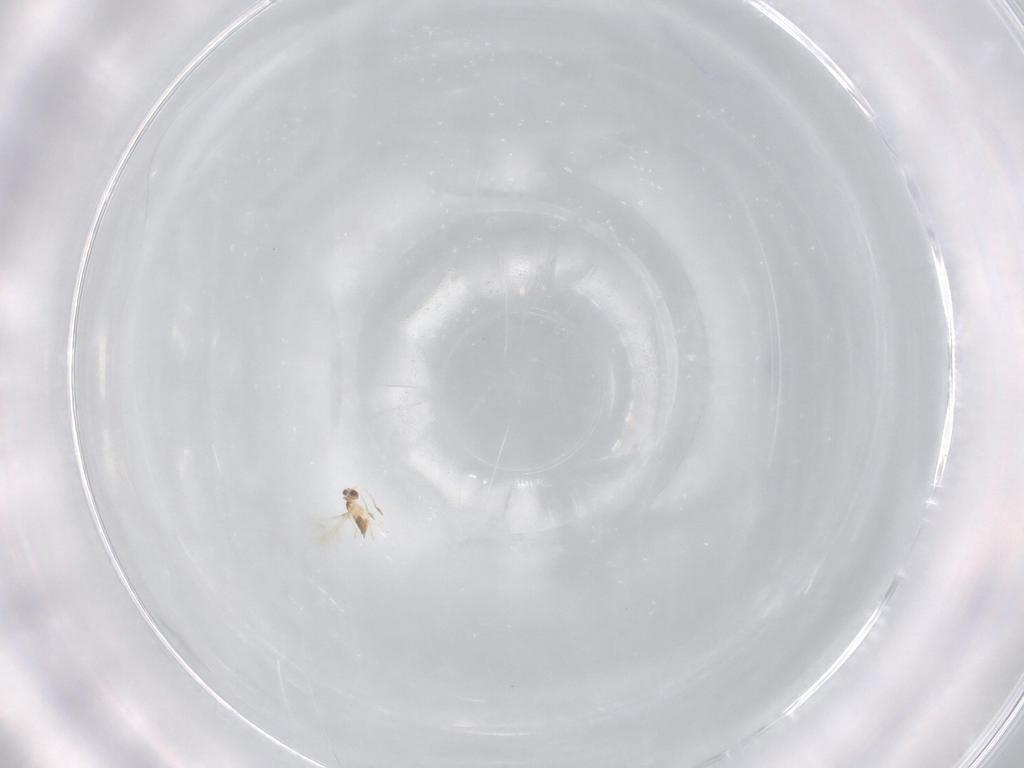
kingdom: Animalia
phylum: Arthropoda
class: Insecta
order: Hymenoptera
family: Mymaridae
